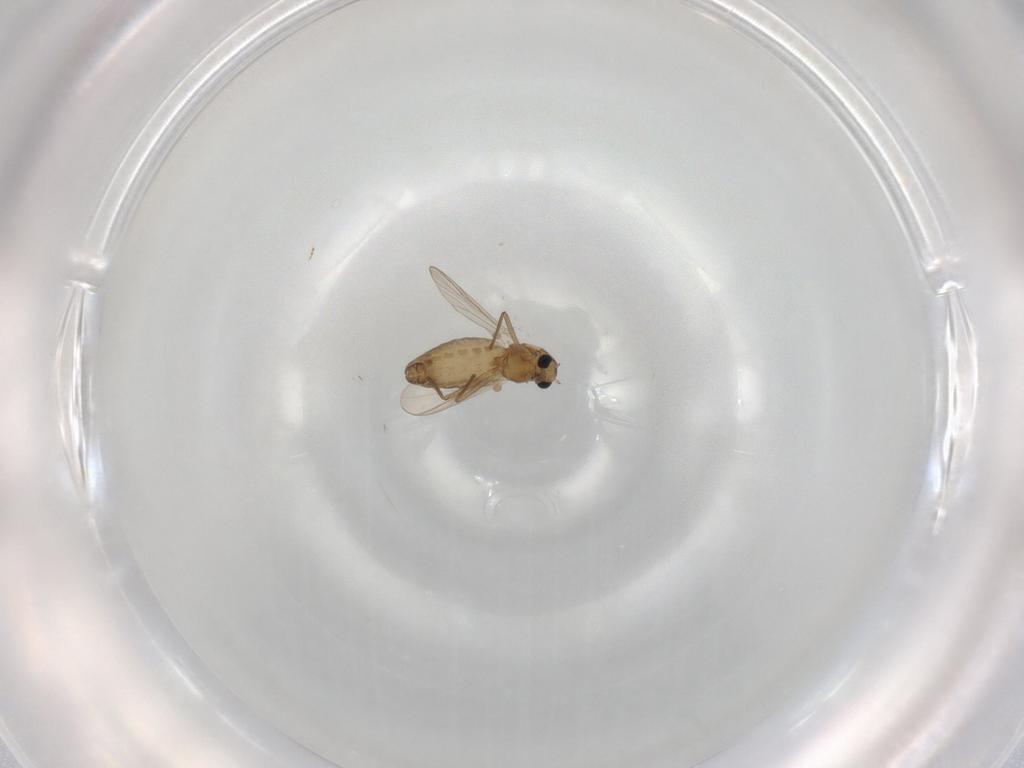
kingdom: Animalia
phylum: Arthropoda
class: Insecta
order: Diptera
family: Chironomidae
